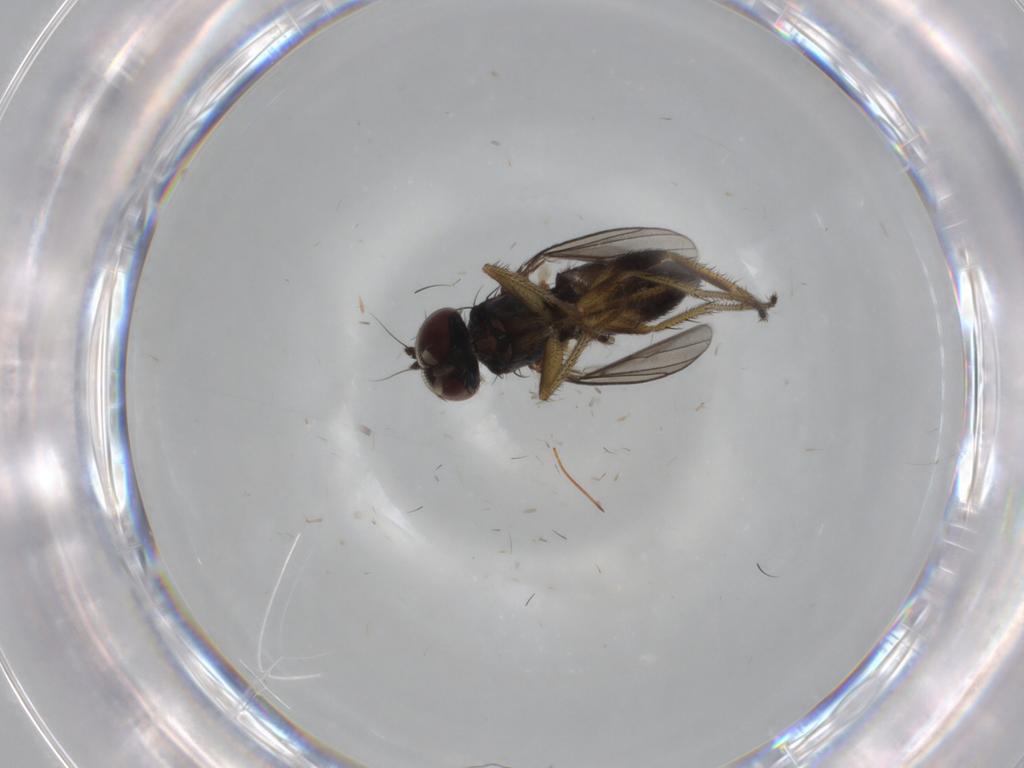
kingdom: Animalia
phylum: Arthropoda
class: Insecta
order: Diptera
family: Dolichopodidae
